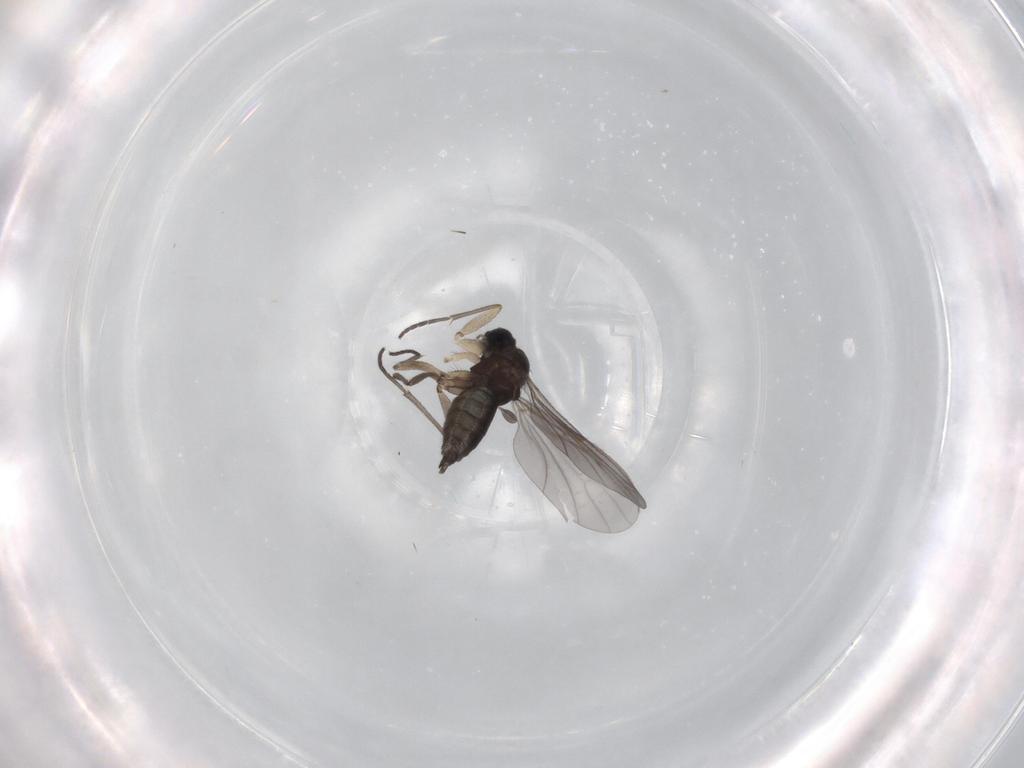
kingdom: Animalia
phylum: Arthropoda
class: Insecta
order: Diptera
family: Sciaridae
